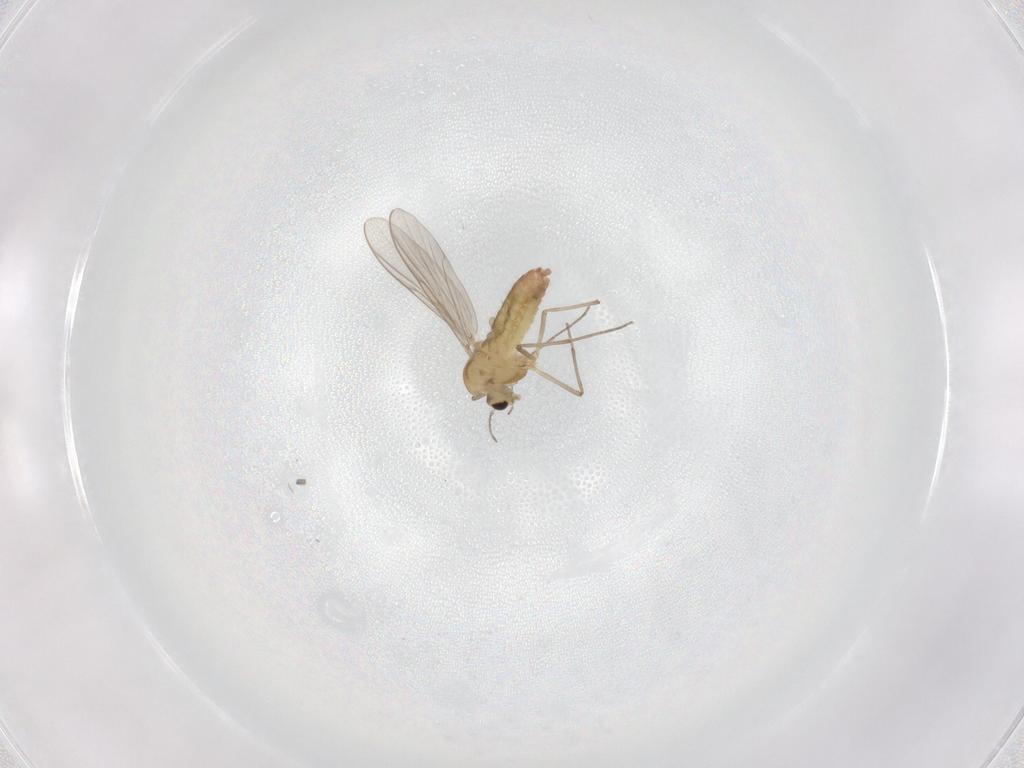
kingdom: Animalia
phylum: Arthropoda
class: Insecta
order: Diptera
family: Chironomidae
